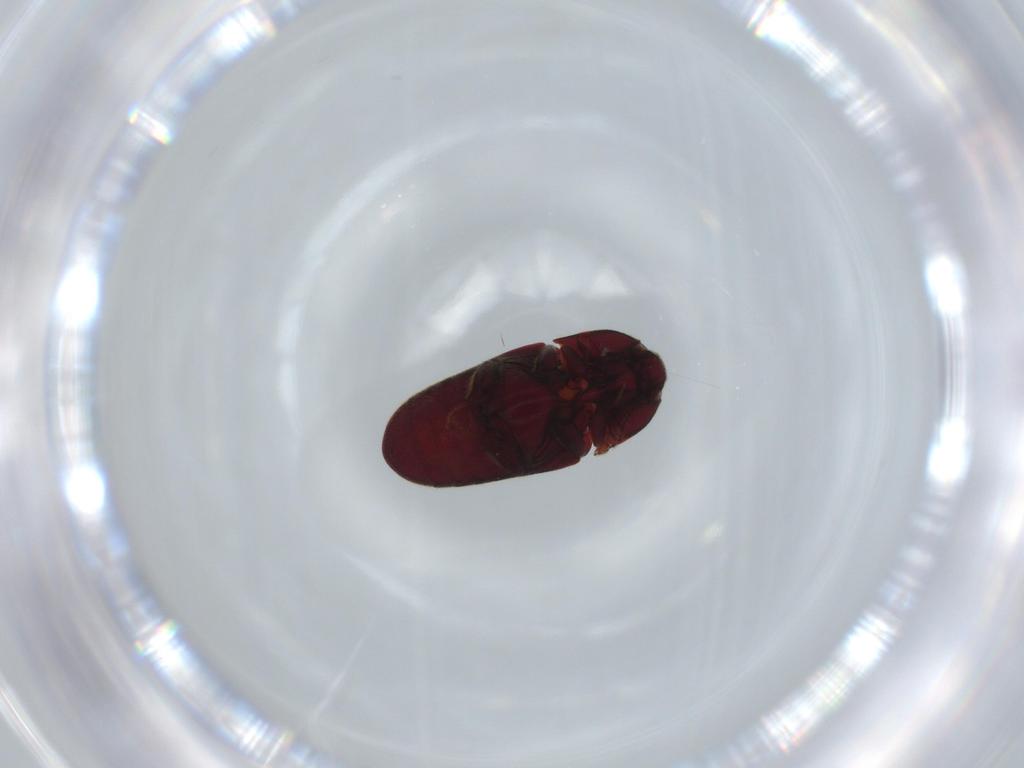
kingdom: Animalia
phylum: Arthropoda
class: Insecta
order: Coleoptera
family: Throscidae
